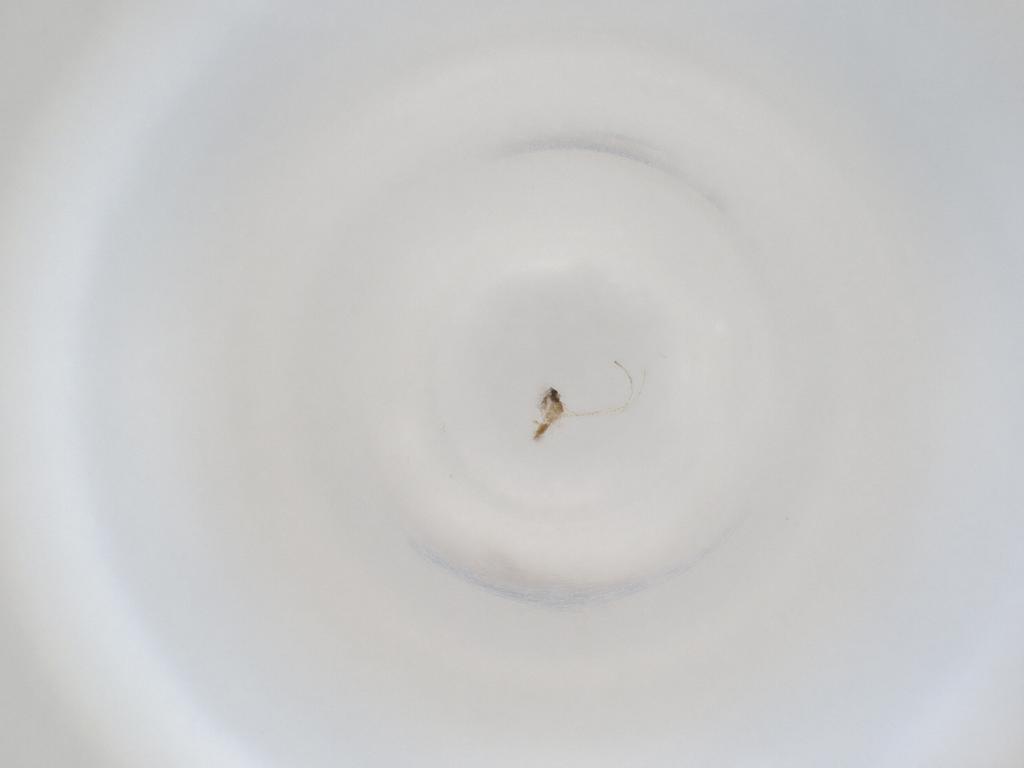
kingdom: Animalia
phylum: Arthropoda
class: Insecta
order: Diptera
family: Cecidomyiidae
